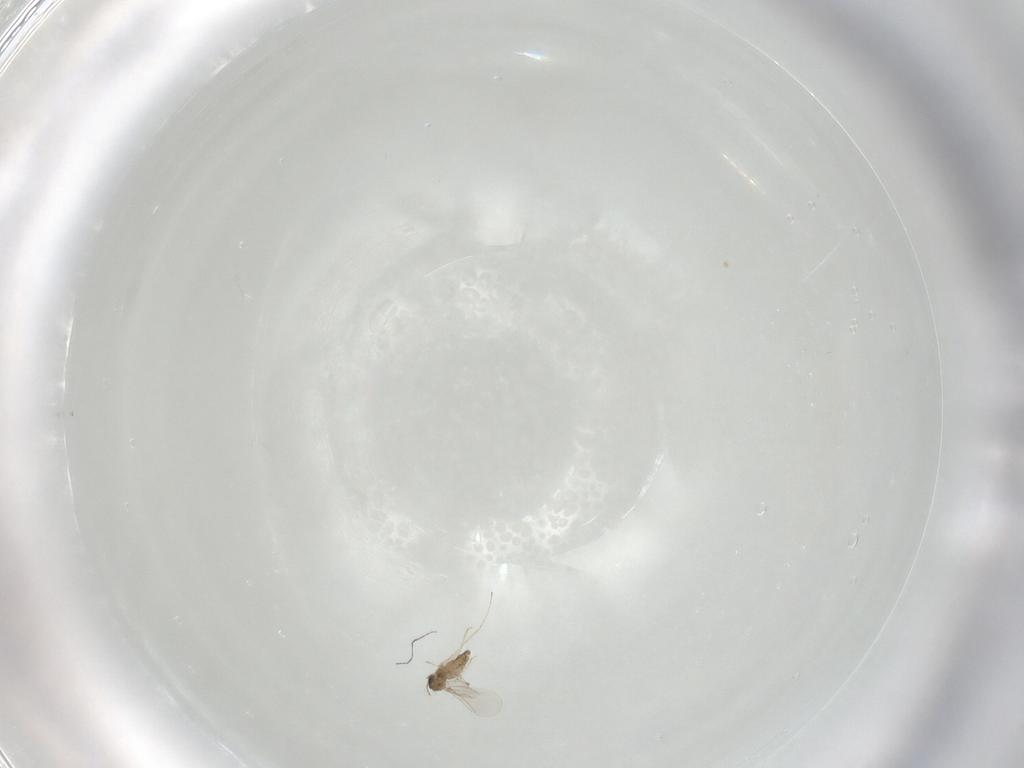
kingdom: Animalia
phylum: Arthropoda
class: Insecta
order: Diptera
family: Cecidomyiidae
